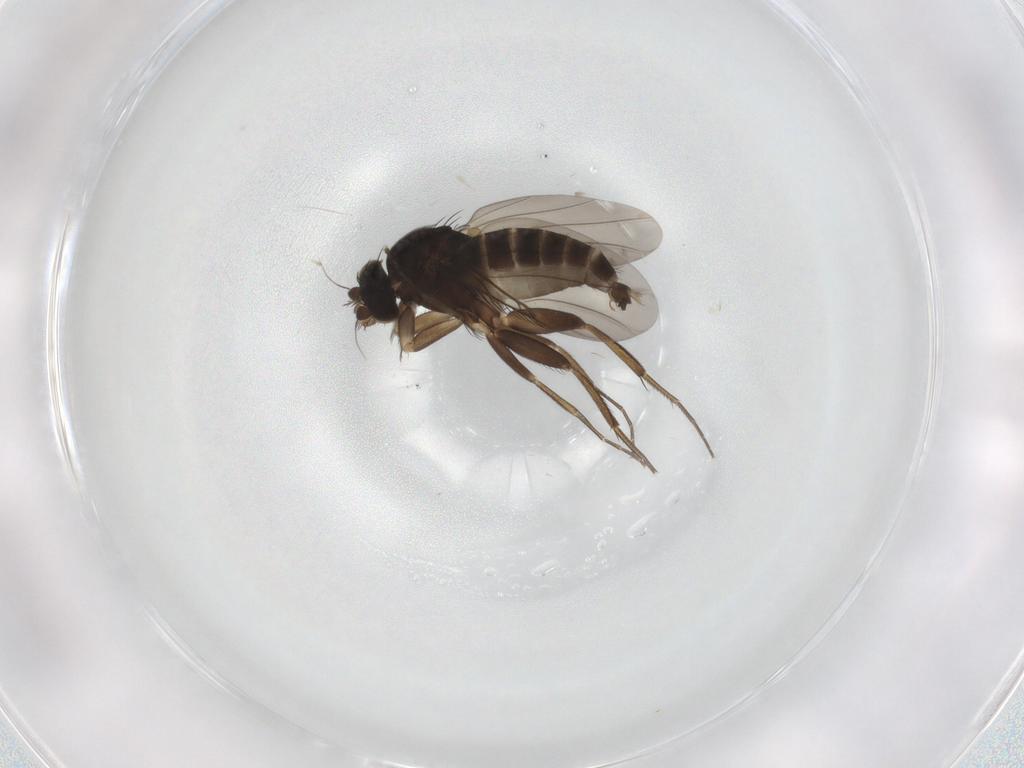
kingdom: Animalia
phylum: Arthropoda
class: Insecta
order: Diptera
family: Phoridae
